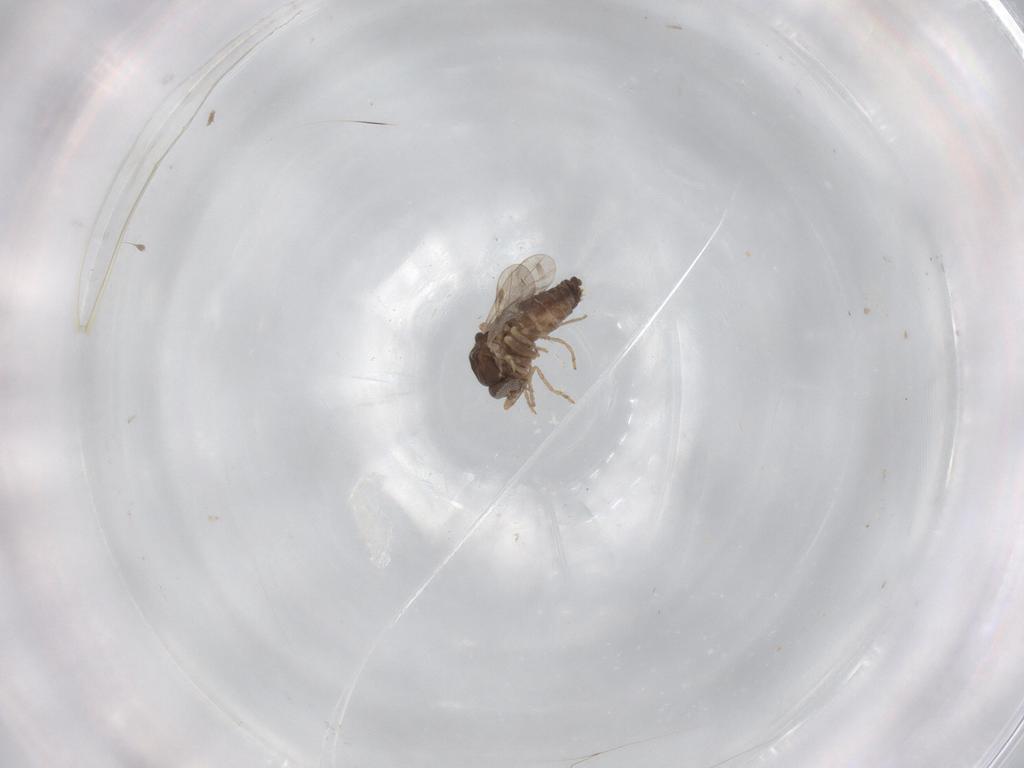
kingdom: Animalia
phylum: Arthropoda
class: Insecta
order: Diptera
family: Ceratopogonidae
